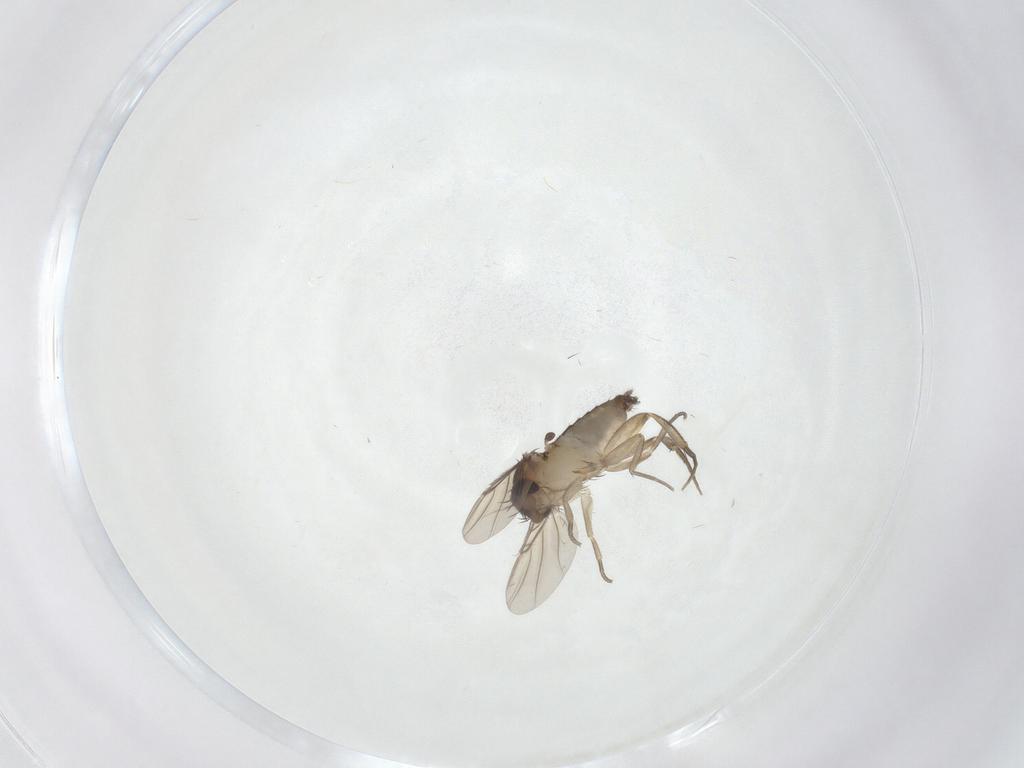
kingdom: Animalia
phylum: Arthropoda
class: Insecta
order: Diptera
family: Phoridae
